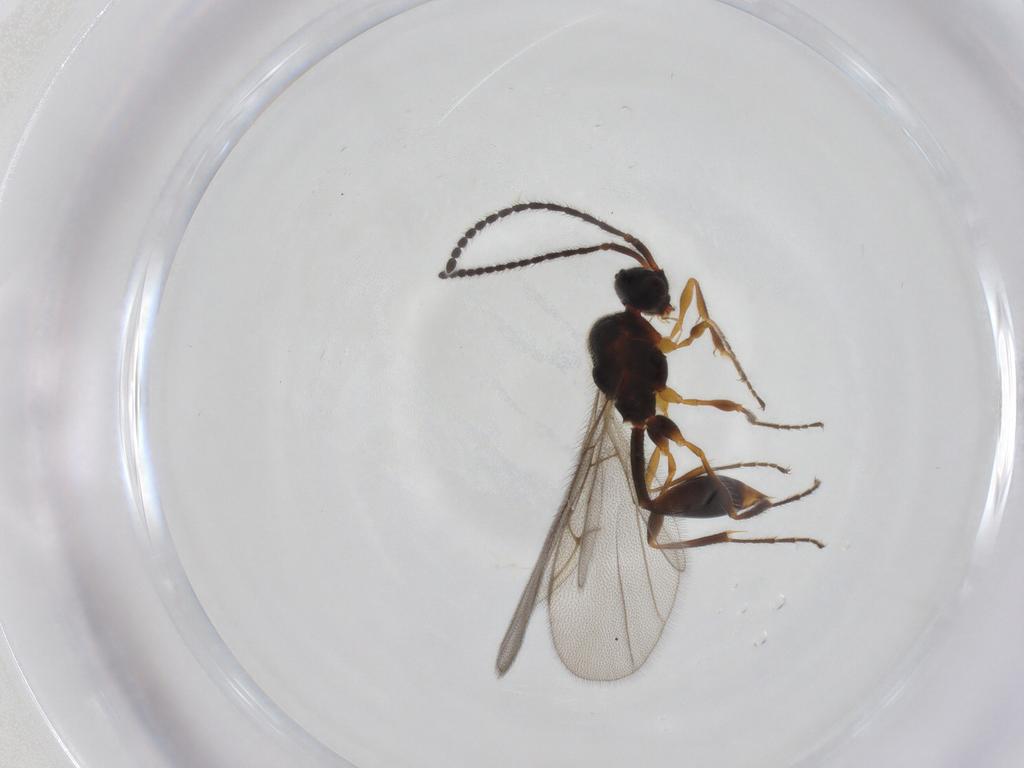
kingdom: Animalia
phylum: Arthropoda
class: Insecta
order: Hymenoptera
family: Diapriidae
